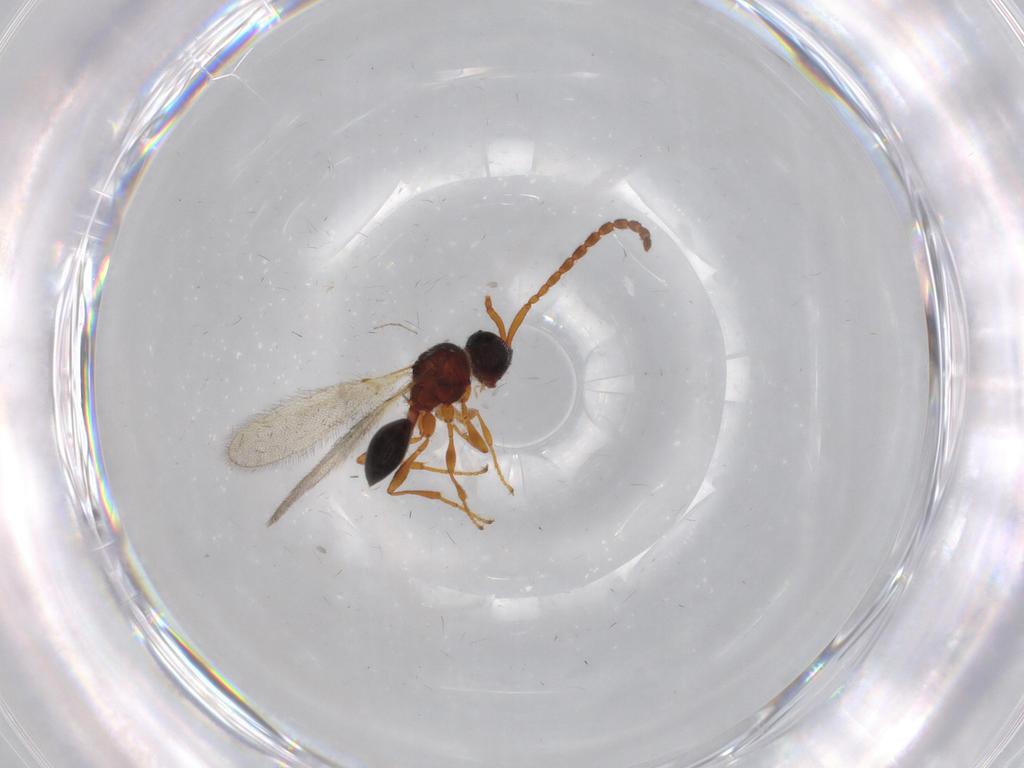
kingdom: Animalia
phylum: Arthropoda
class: Insecta
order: Hymenoptera
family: Diapriidae
